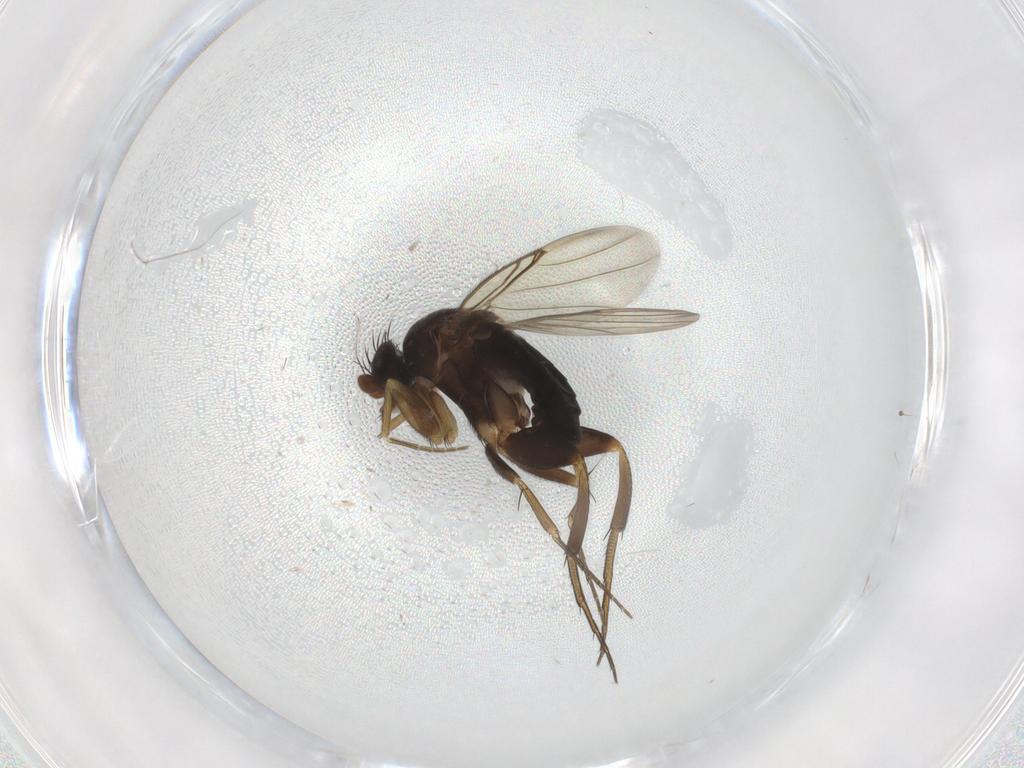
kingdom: Animalia
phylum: Arthropoda
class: Insecta
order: Diptera
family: Phoridae
